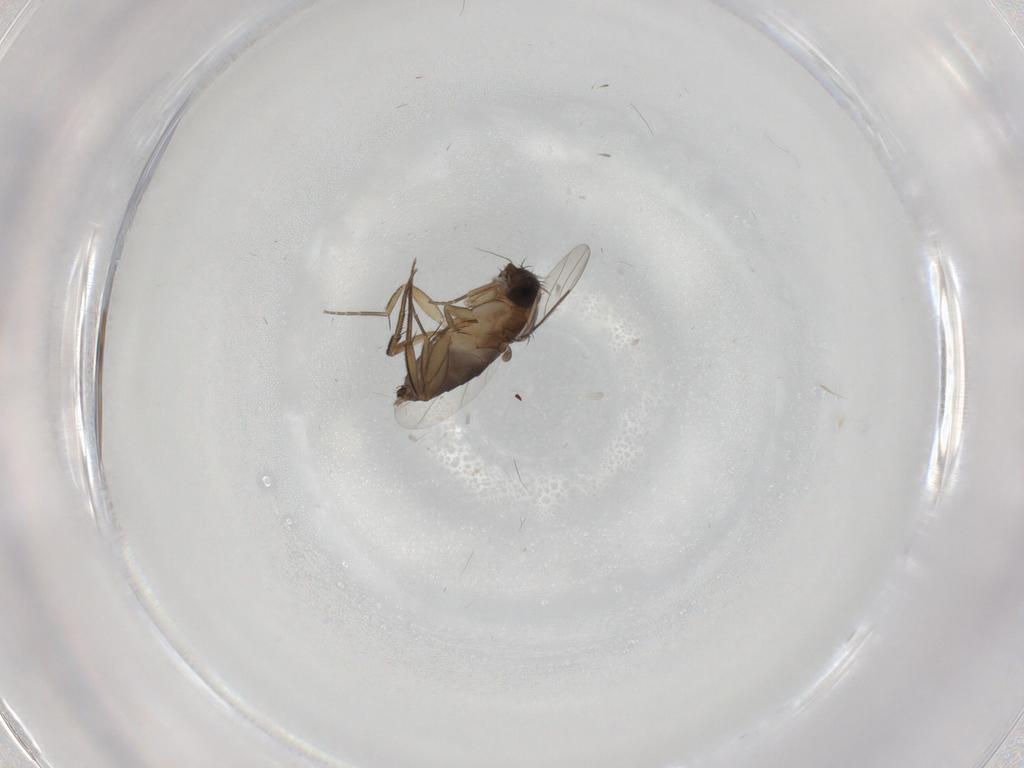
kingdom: Animalia
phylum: Arthropoda
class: Insecta
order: Diptera
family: Phoridae
